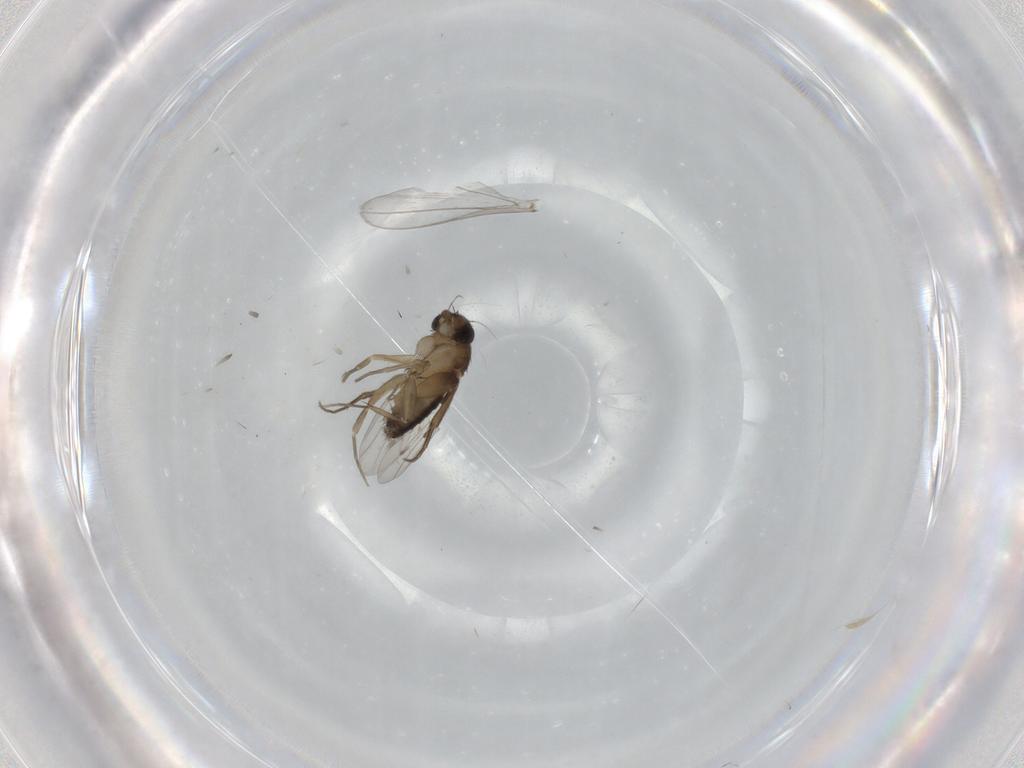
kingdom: Animalia
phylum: Arthropoda
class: Insecta
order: Diptera
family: Phoridae
